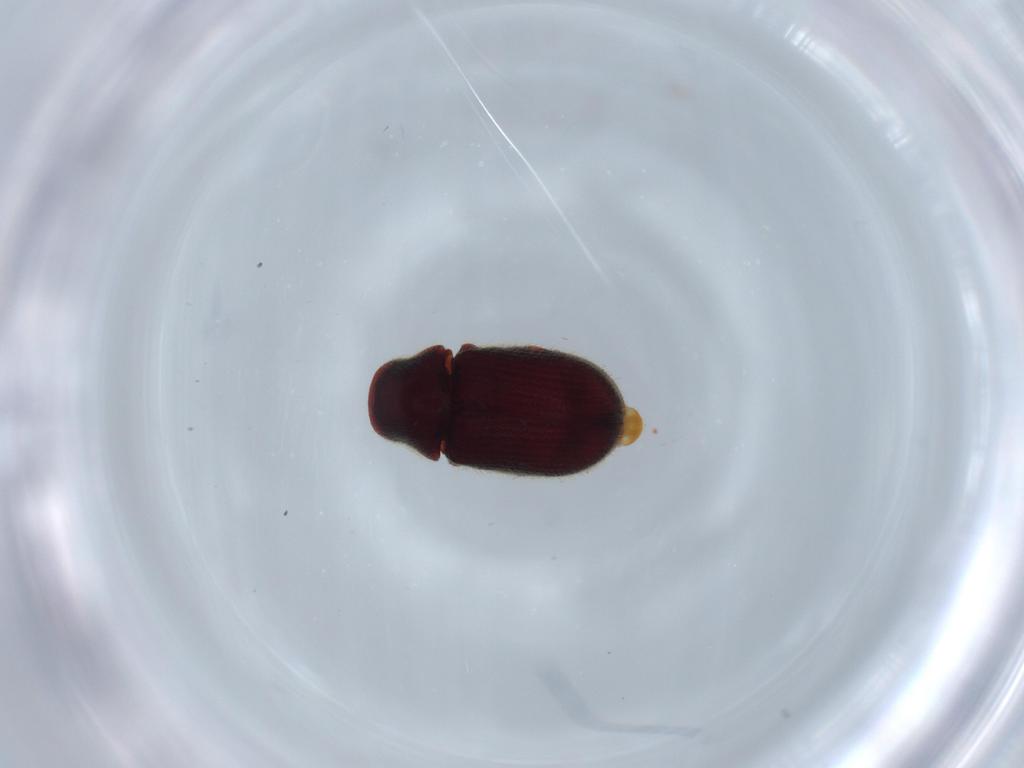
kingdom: Animalia
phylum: Arthropoda
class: Insecta
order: Coleoptera
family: Ptinidae
